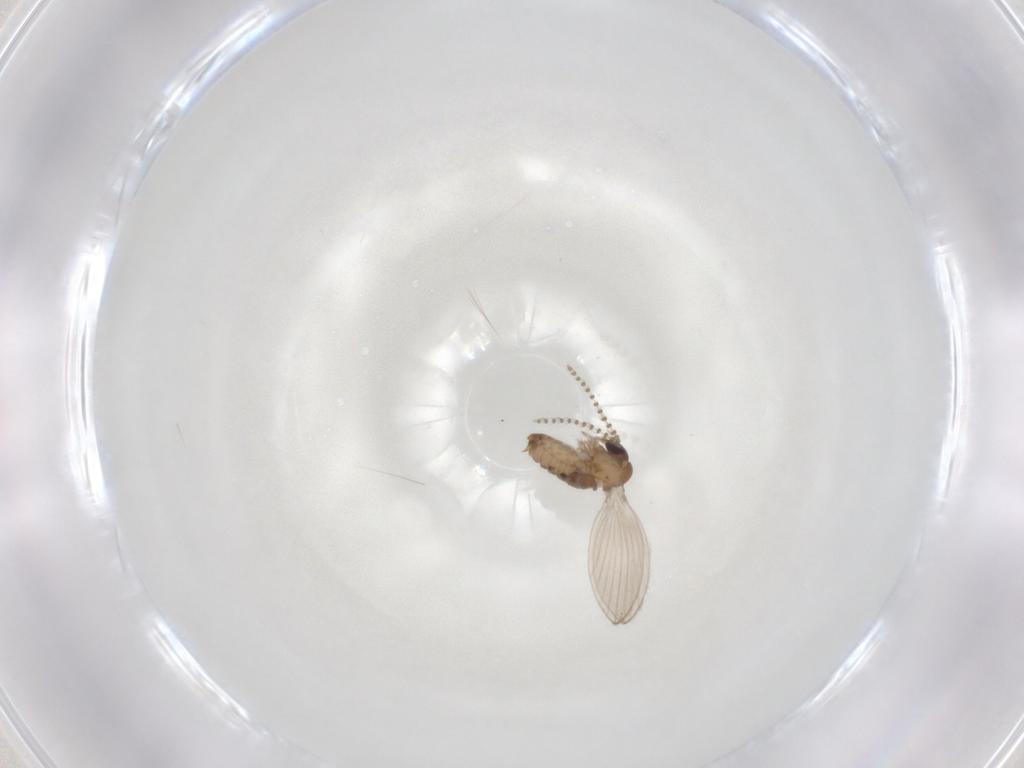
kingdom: Animalia
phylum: Arthropoda
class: Insecta
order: Diptera
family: Psychodidae
